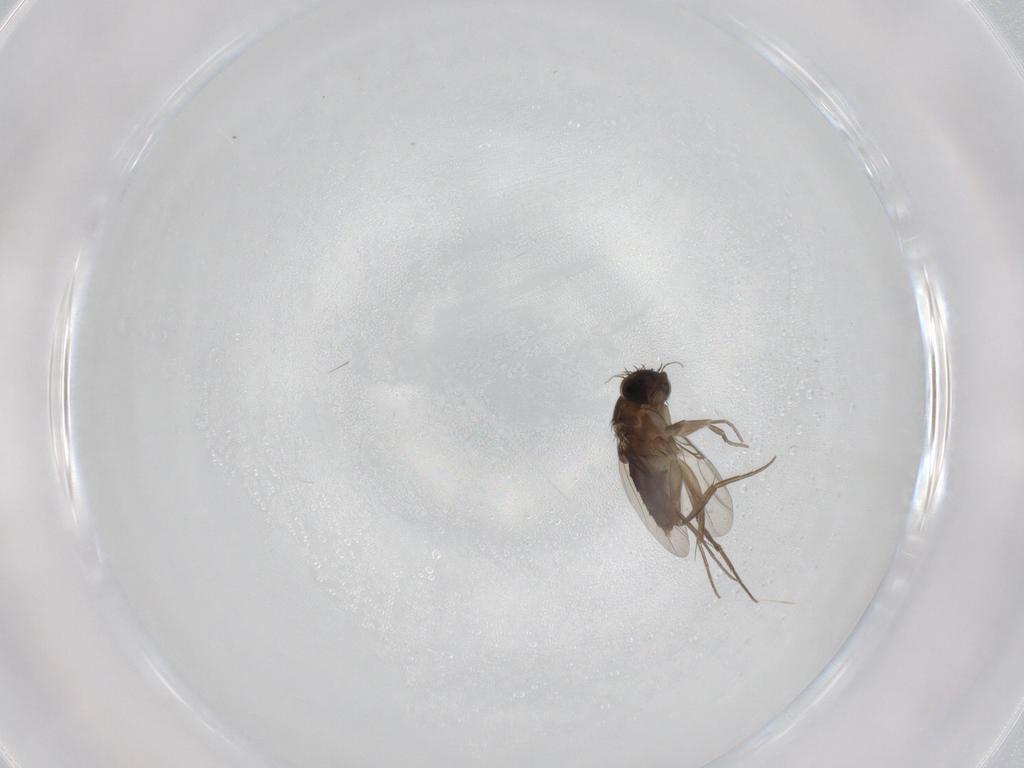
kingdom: Animalia
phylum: Arthropoda
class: Insecta
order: Diptera
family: Phoridae
